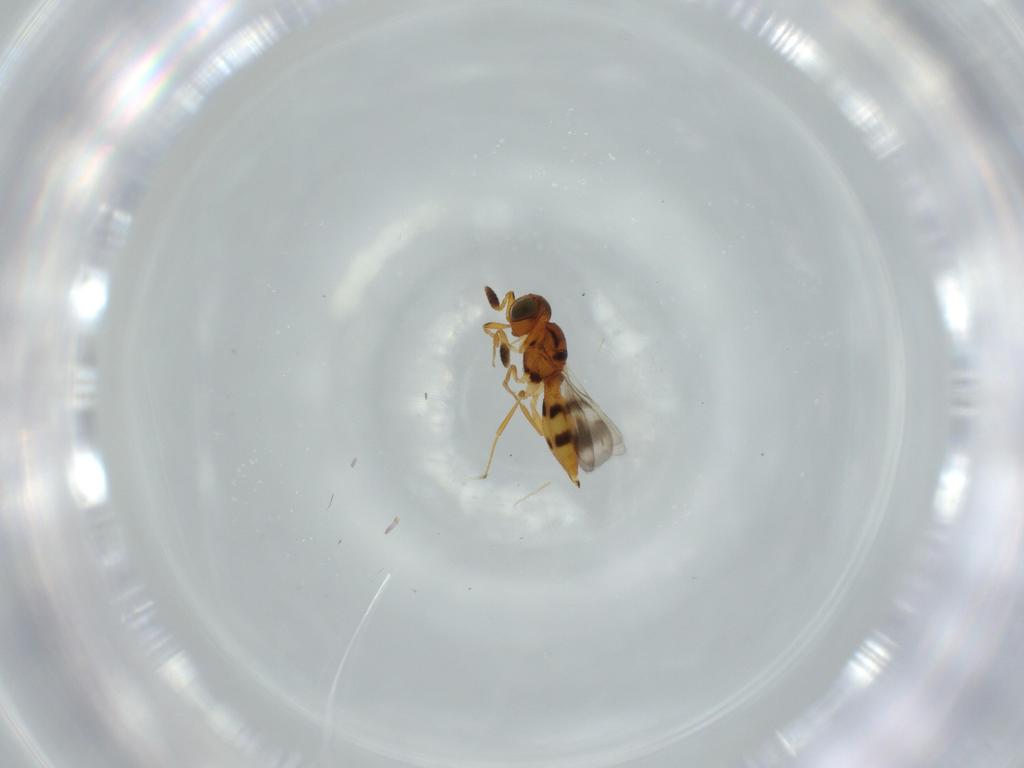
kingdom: Animalia
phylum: Arthropoda
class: Insecta
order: Hymenoptera
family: Scelionidae
